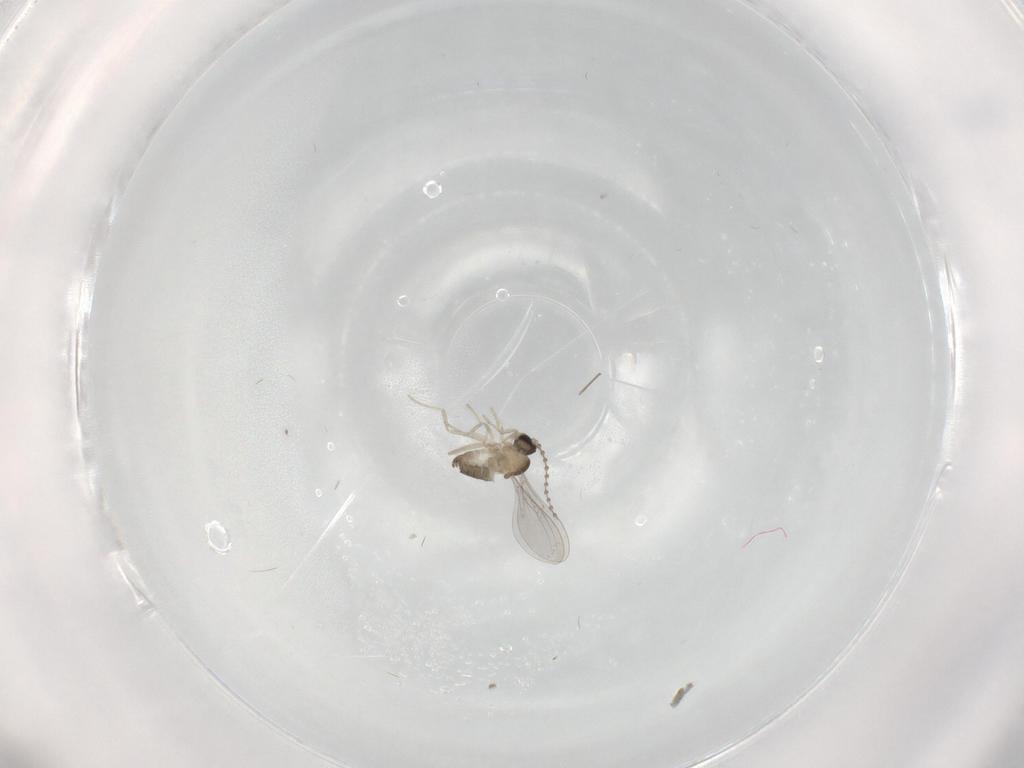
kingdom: Animalia
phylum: Arthropoda
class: Insecta
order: Diptera
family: Cecidomyiidae
